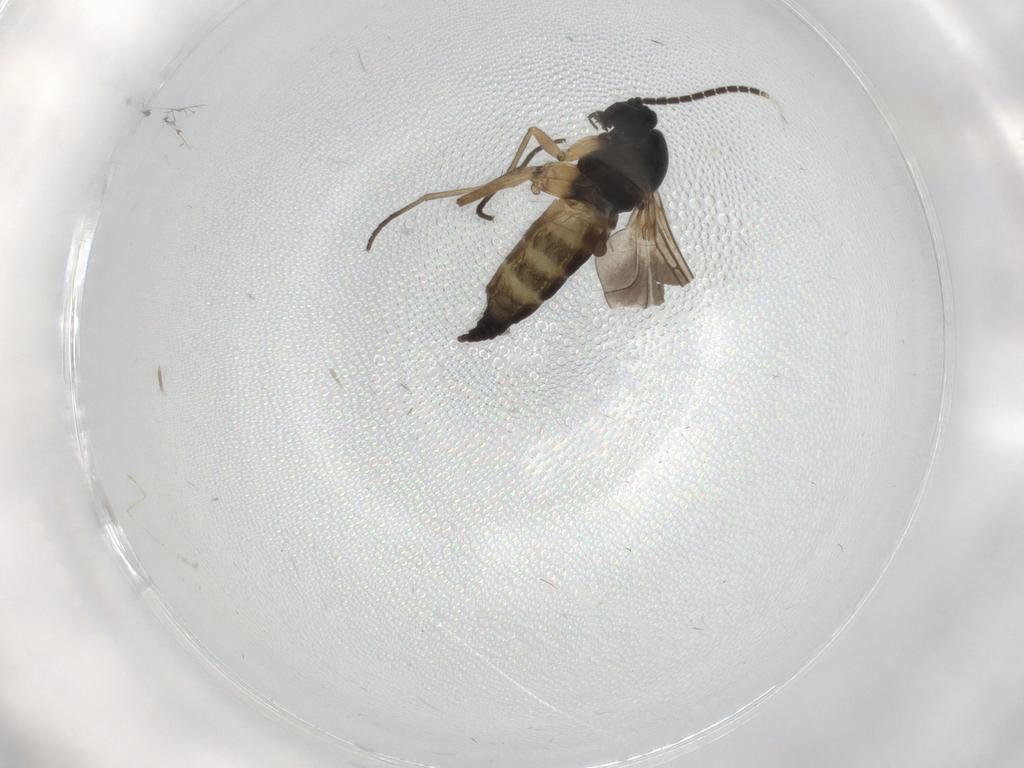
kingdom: Animalia
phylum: Arthropoda
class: Insecta
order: Diptera
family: Sciaridae
